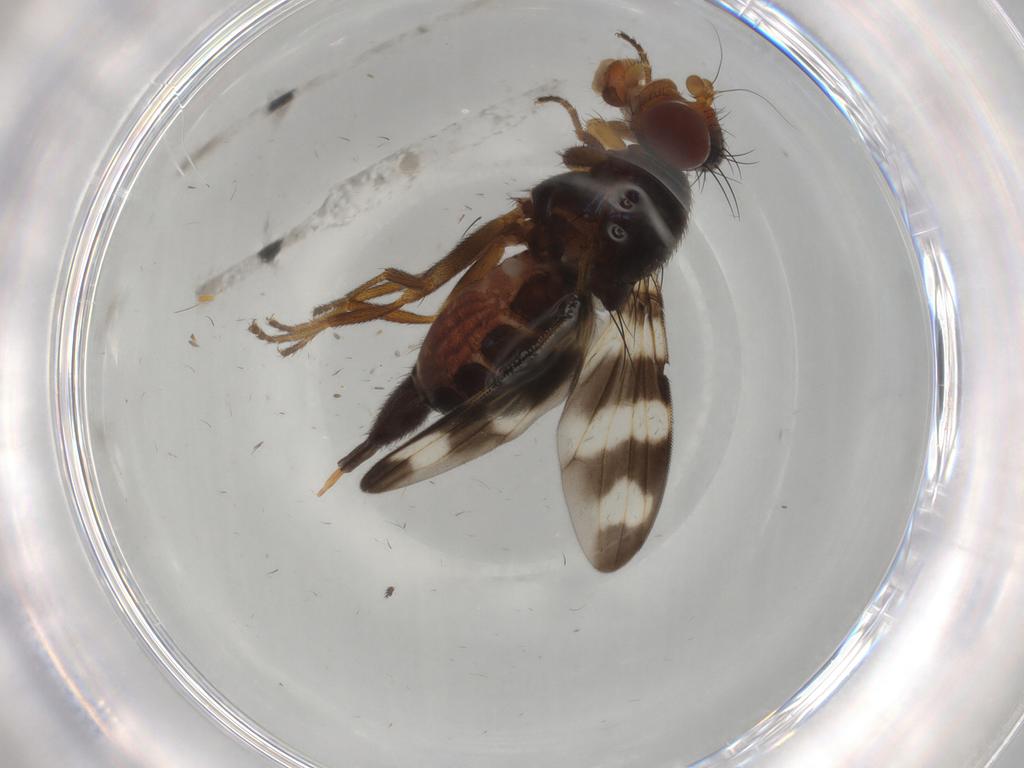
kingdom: Animalia
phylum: Arthropoda
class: Insecta
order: Diptera
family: Ulidiidae
